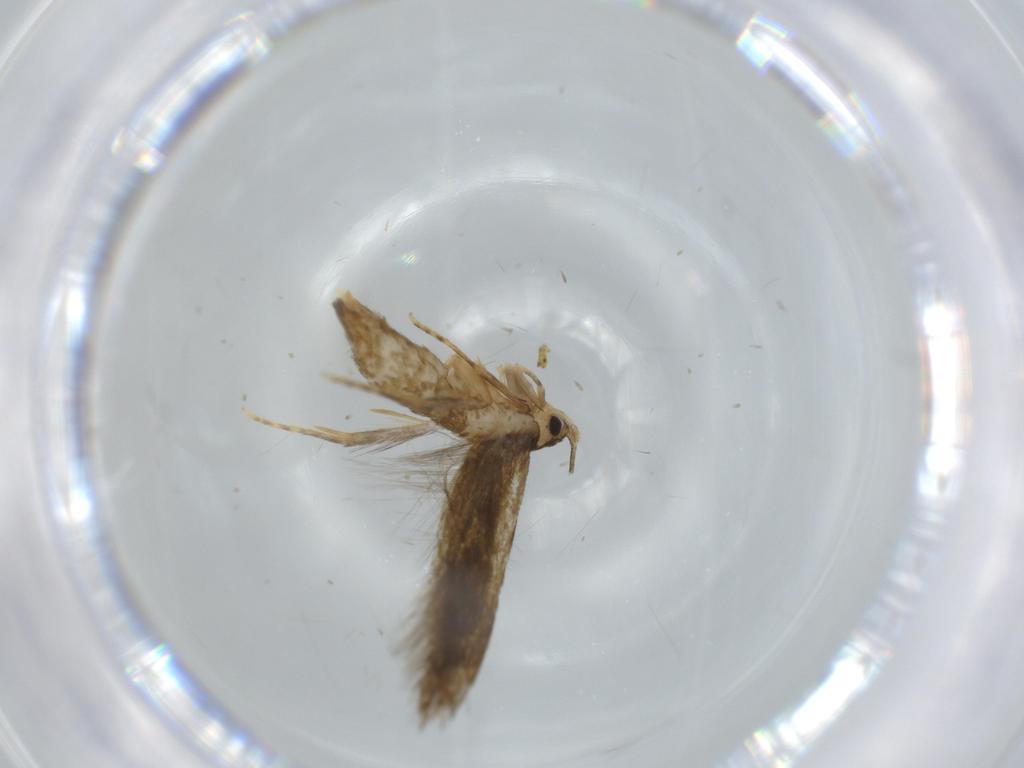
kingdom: Animalia
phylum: Arthropoda
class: Insecta
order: Lepidoptera
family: Tineidae
